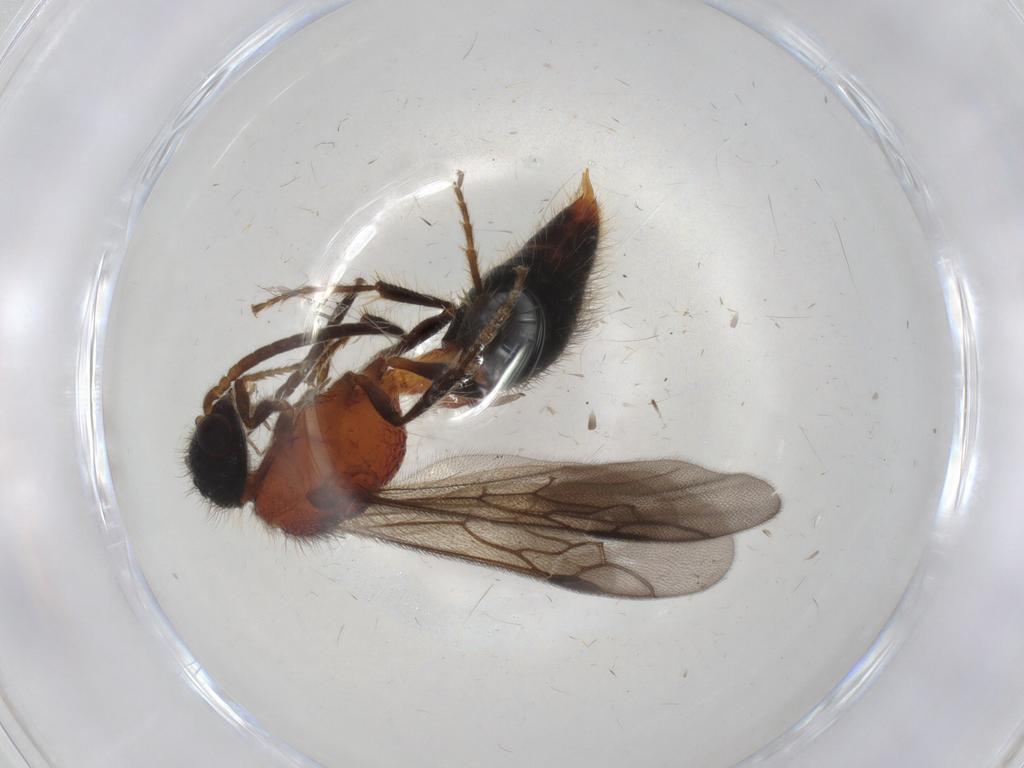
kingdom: Animalia
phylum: Arthropoda
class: Insecta
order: Hymenoptera
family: Mutillidae
